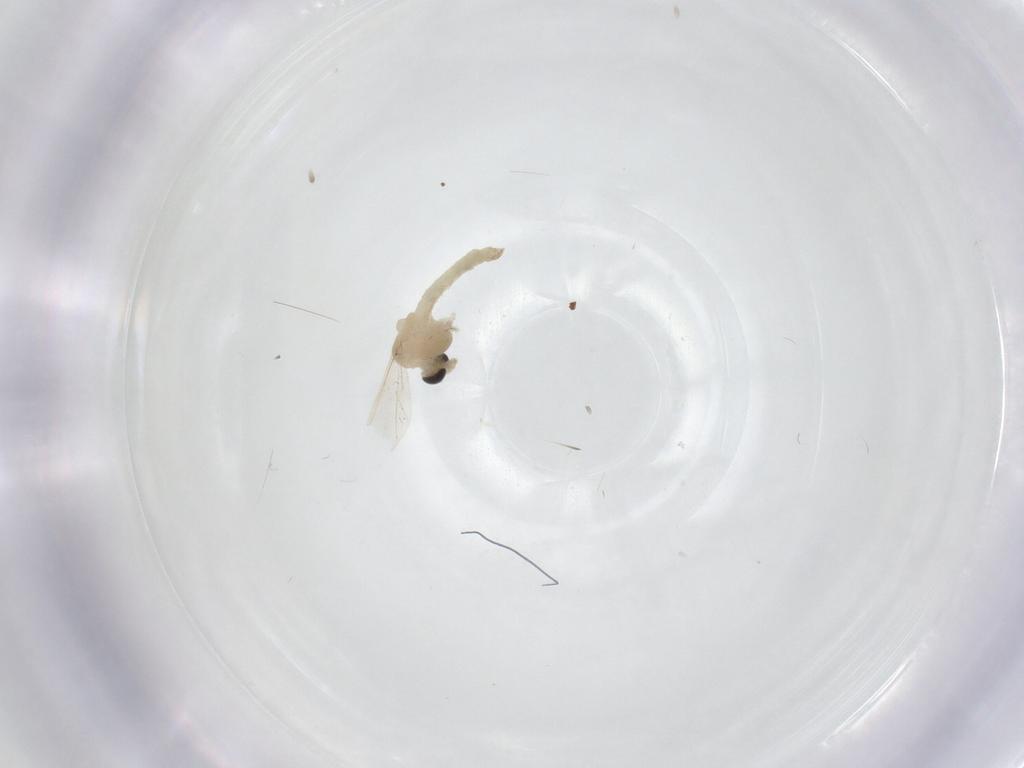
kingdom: Animalia
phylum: Arthropoda
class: Insecta
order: Diptera
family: Chironomidae
